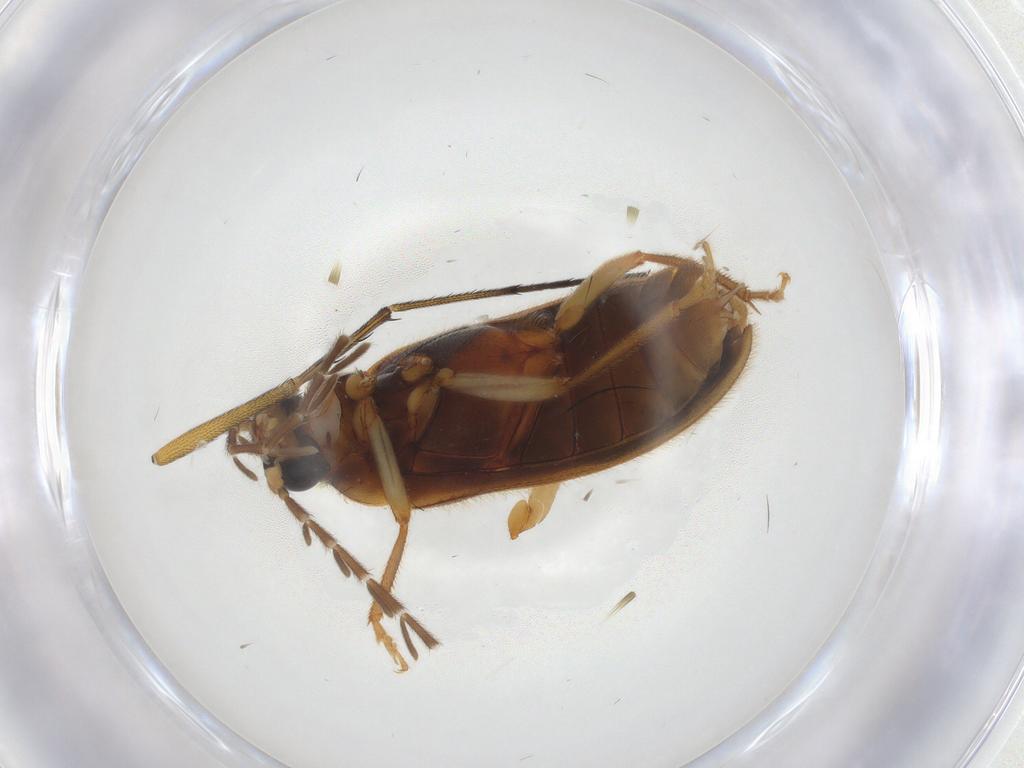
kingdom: Animalia
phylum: Arthropoda
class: Insecta
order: Coleoptera
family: Ptilodactylidae
